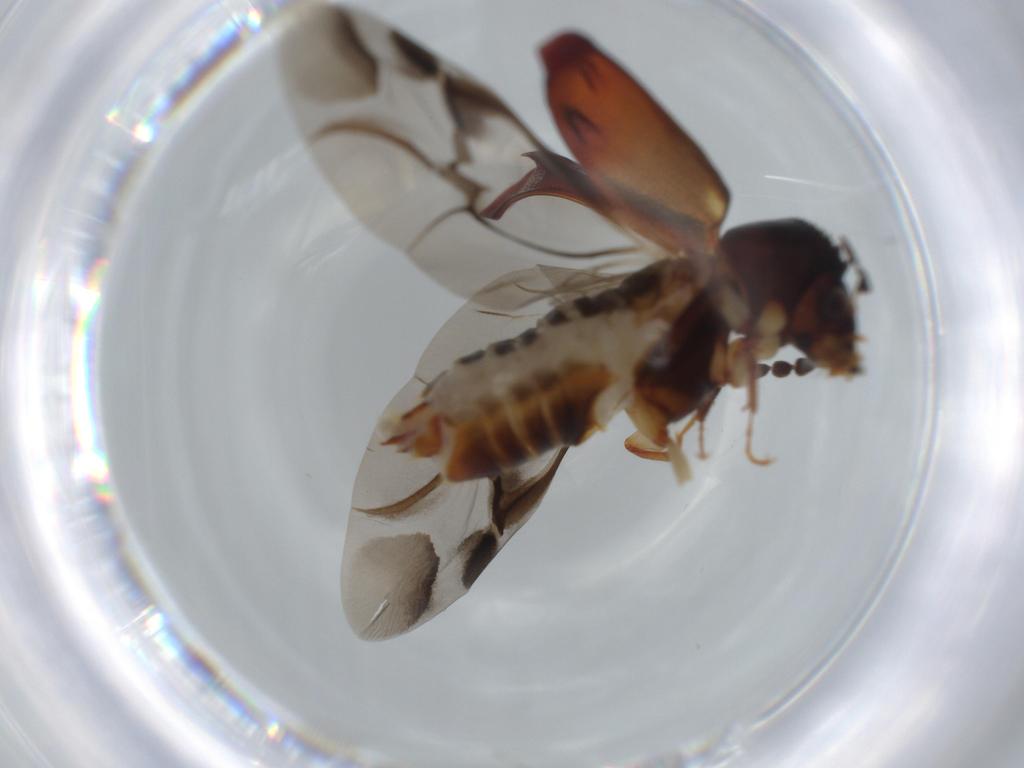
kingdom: Animalia
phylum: Arthropoda
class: Insecta
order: Coleoptera
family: Bostrichidae
